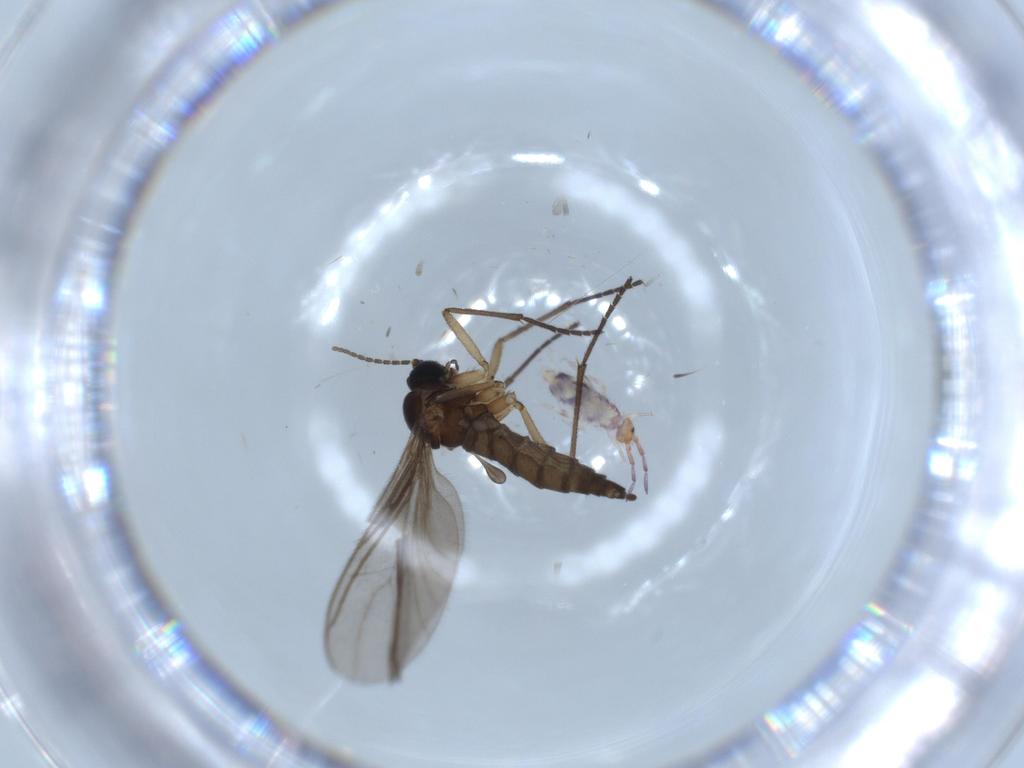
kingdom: Animalia
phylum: Arthropoda
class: Collembola
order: Entomobryomorpha
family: Entomobryidae
